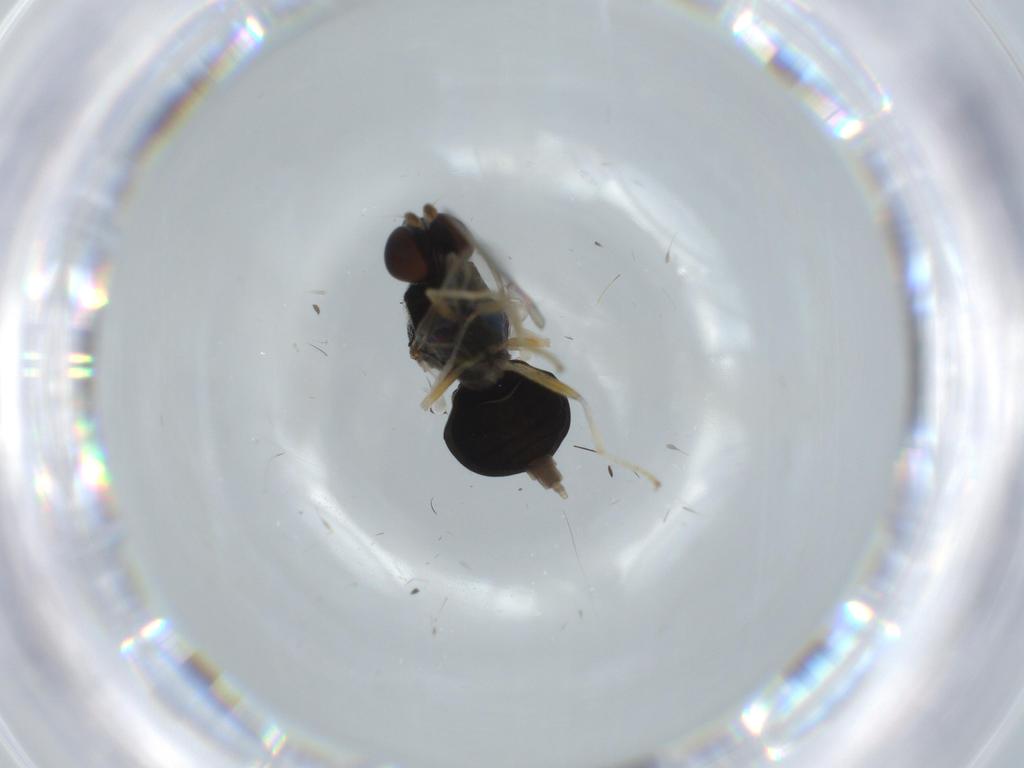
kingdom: Animalia
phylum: Arthropoda
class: Insecta
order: Diptera
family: Stratiomyidae
